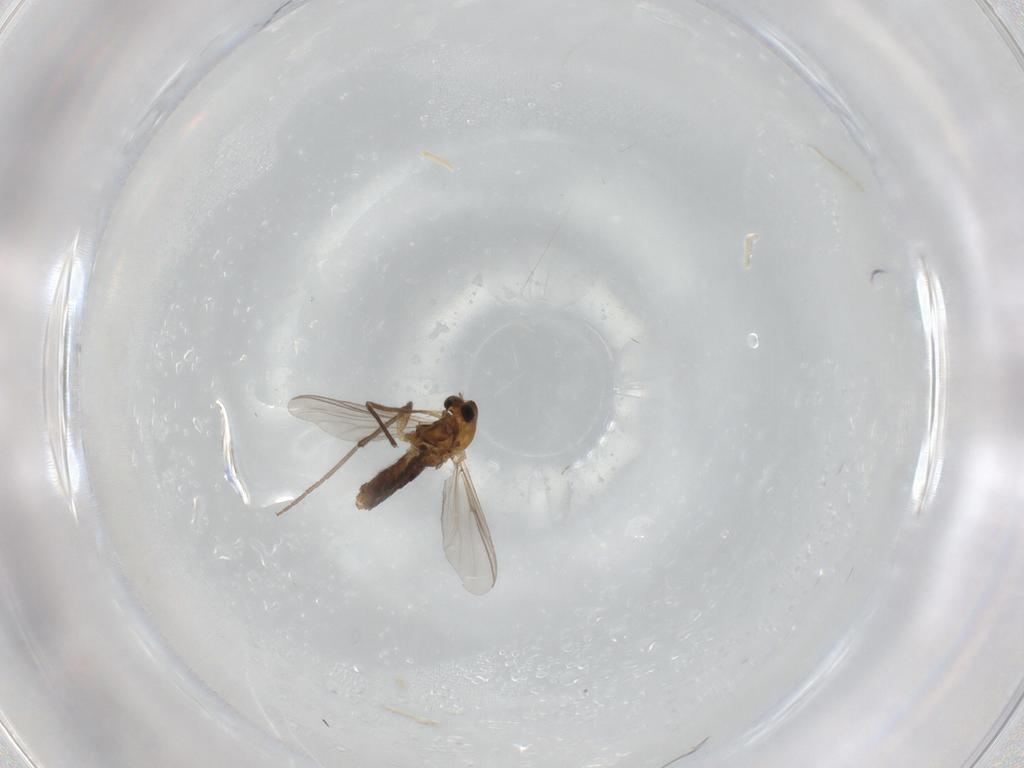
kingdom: Animalia
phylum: Arthropoda
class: Insecta
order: Diptera
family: Chironomidae
